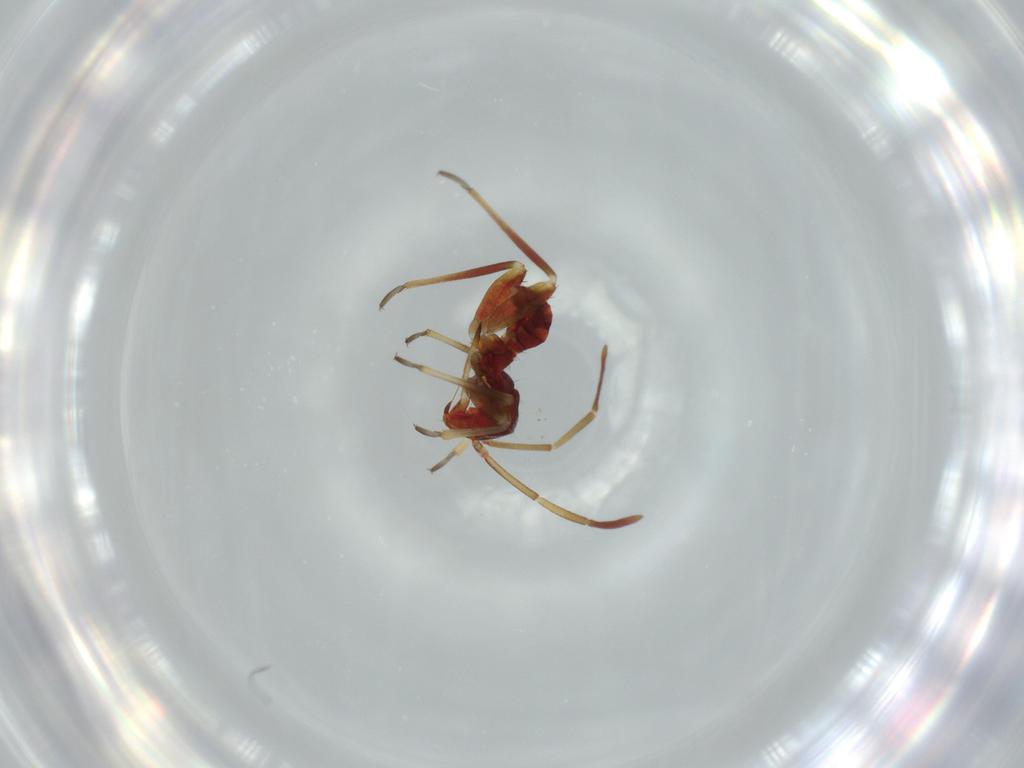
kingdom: Animalia
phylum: Arthropoda
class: Insecta
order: Hemiptera
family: Miridae
